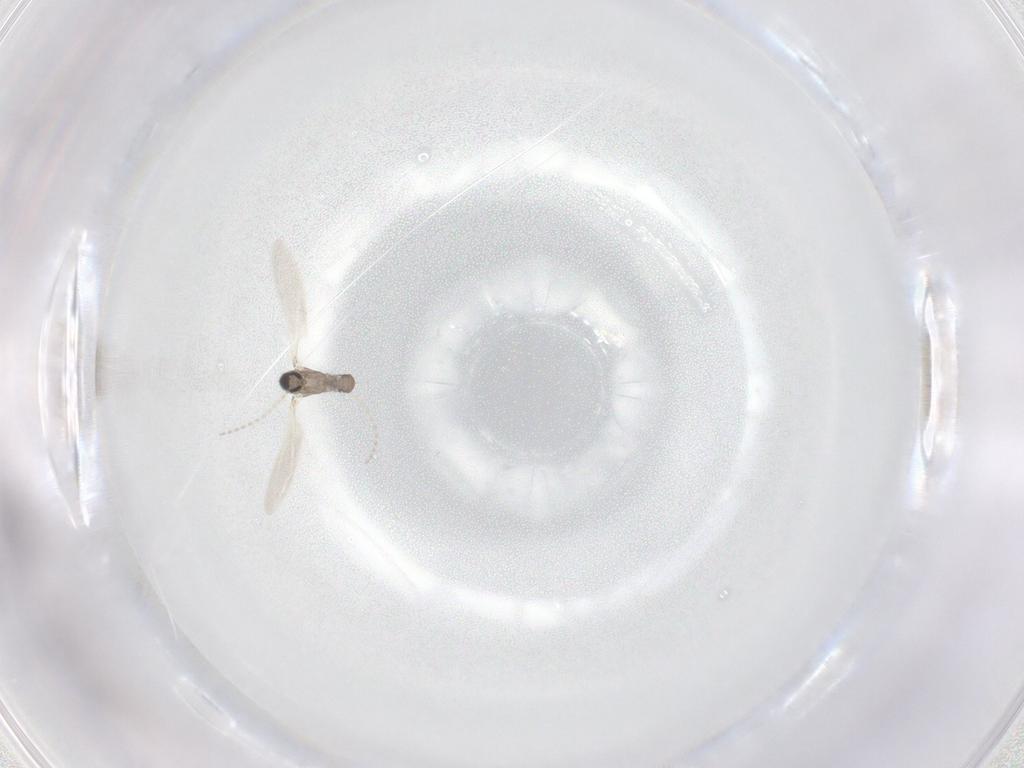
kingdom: Animalia
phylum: Arthropoda
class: Insecta
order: Diptera
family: Cecidomyiidae
